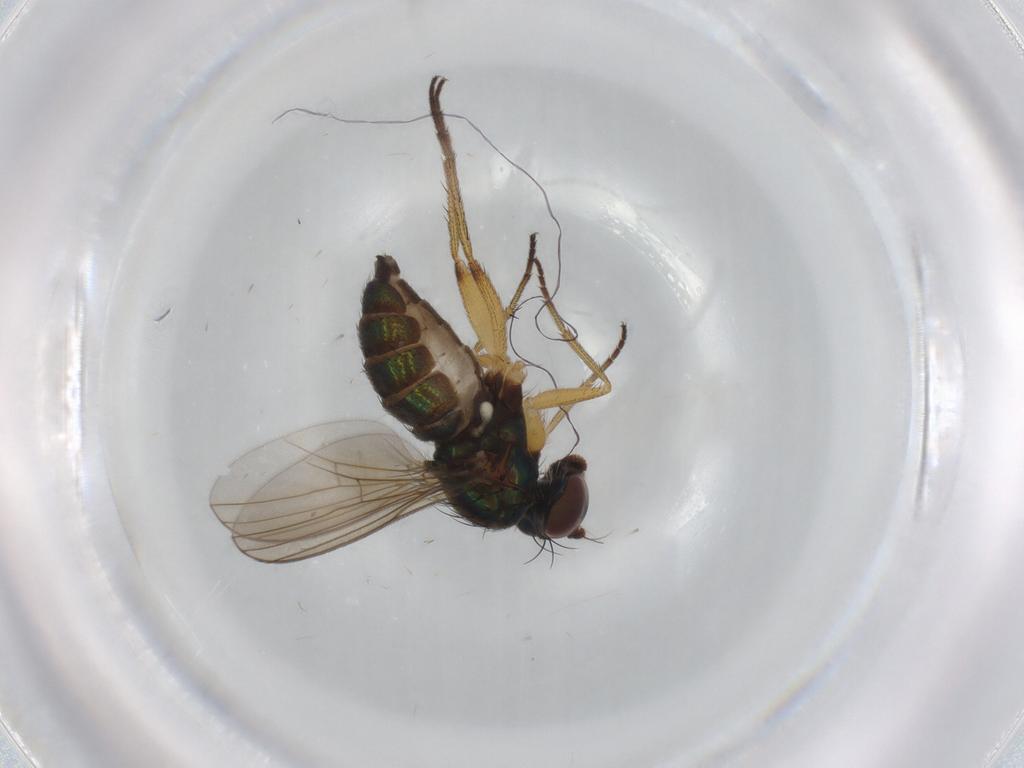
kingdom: Animalia
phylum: Arthropoda
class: Insecta
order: Diptera
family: Dolichopodidae
